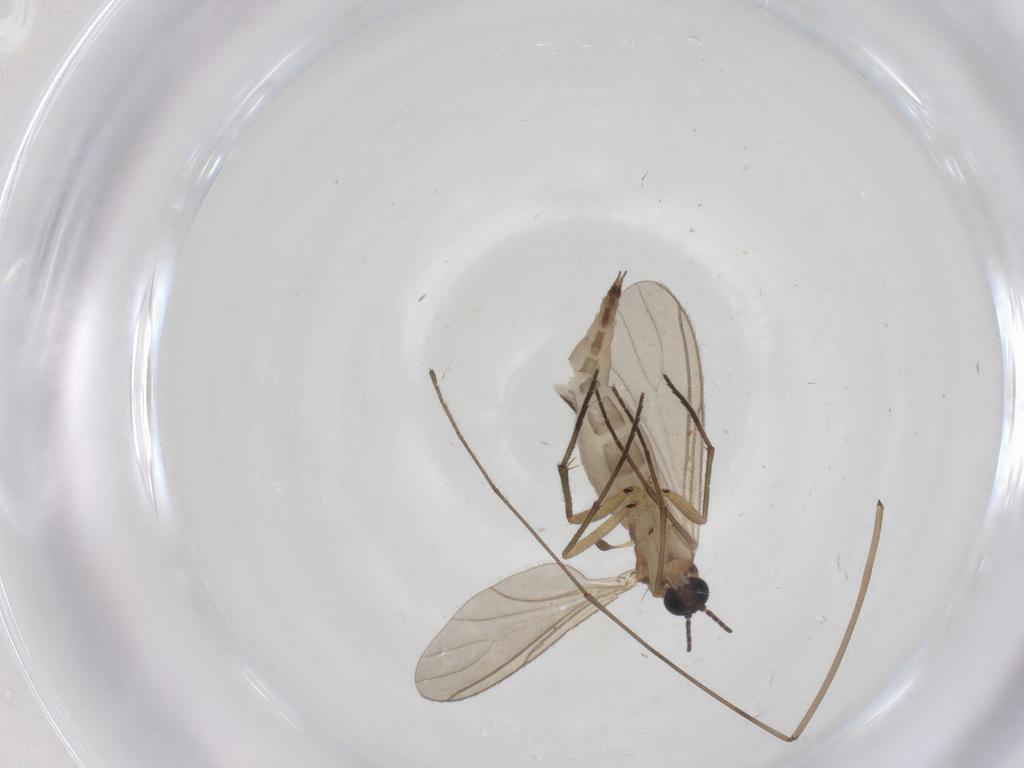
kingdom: Animalia
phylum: Arthropoda
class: Insecta
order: Diptera
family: Limoniidae
